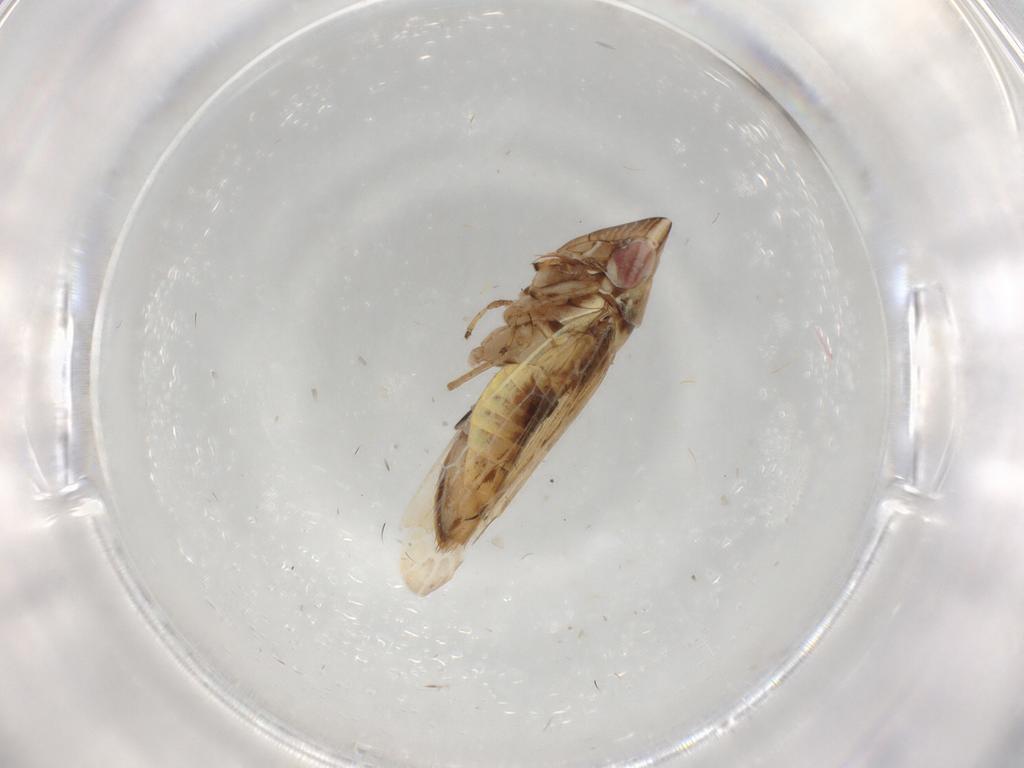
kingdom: Animalia
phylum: Arthropoda
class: Insecta
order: Hemiptera
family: Cicadellidae
